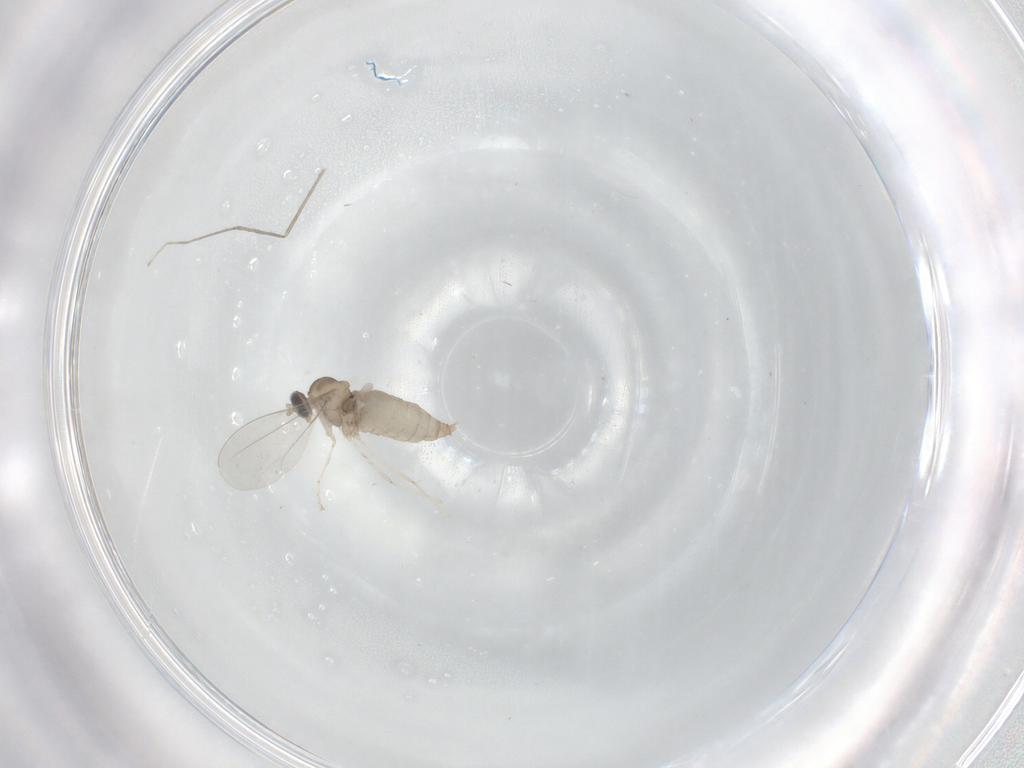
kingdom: Animalia
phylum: Arthropoda
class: Insecta
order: Diptera
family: Cecidomyiidae
